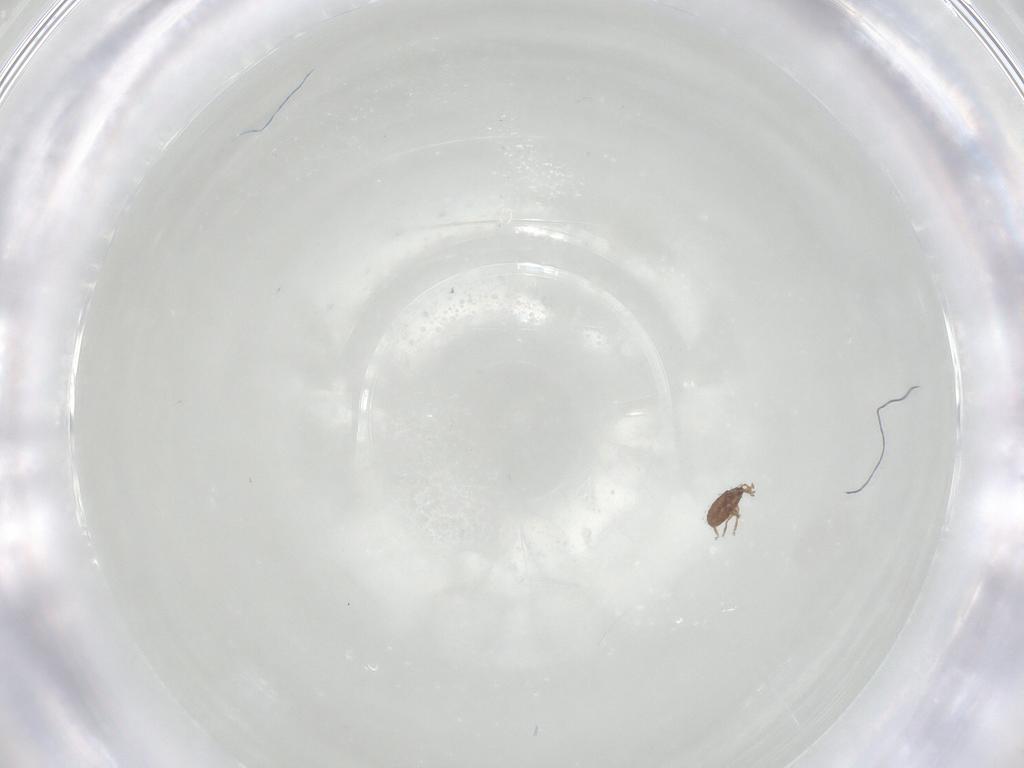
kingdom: Animalia
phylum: Arthropoda
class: Arachnida
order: Sarcoptiformes
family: Scheloribatidae
